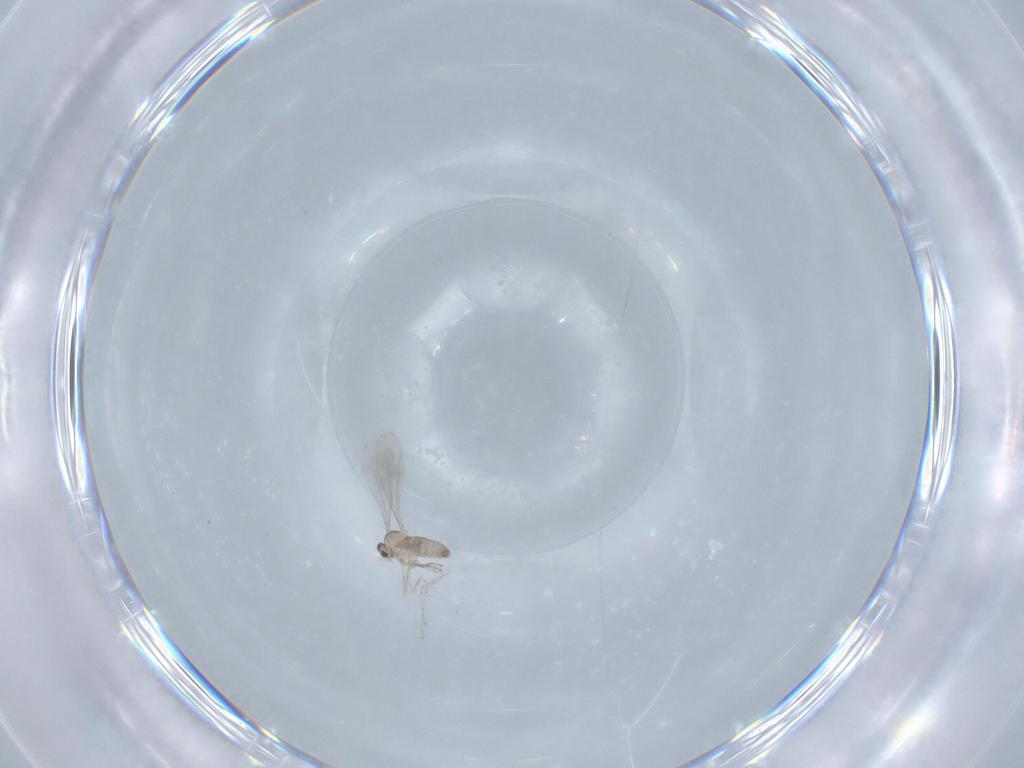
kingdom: Animalia
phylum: Arthropoda
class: Insecta
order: Diptera
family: Cecidomyiidae
